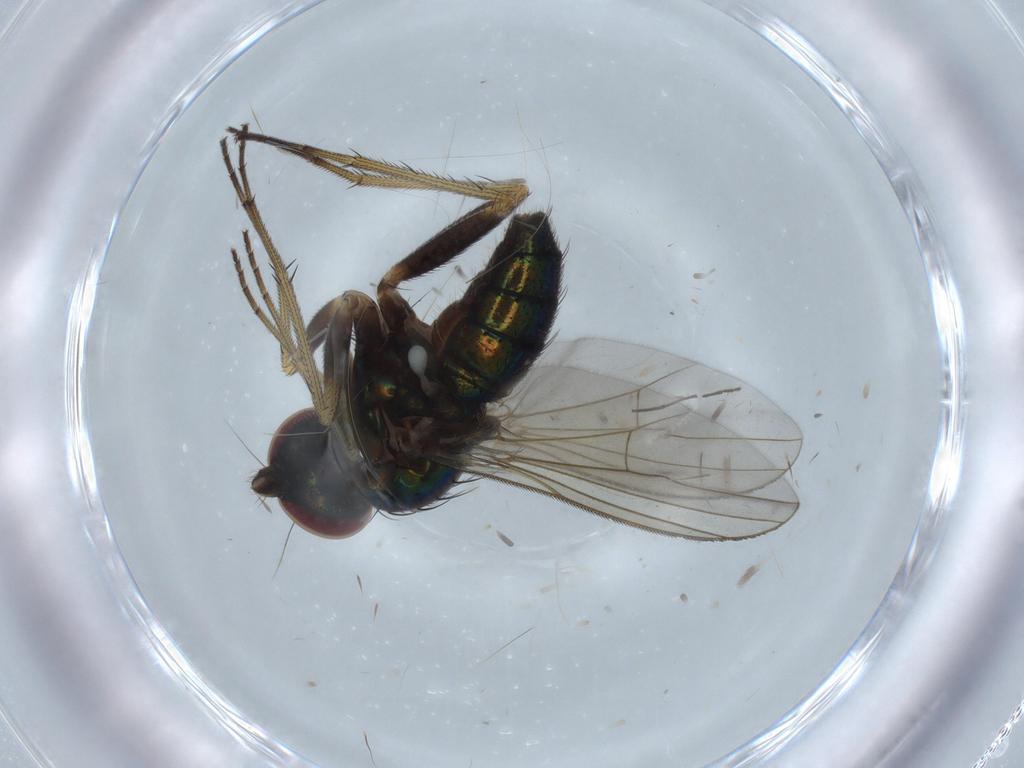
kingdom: Animalia
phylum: Arthropoda
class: Insecta
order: Diptera
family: Dolichopodidae
